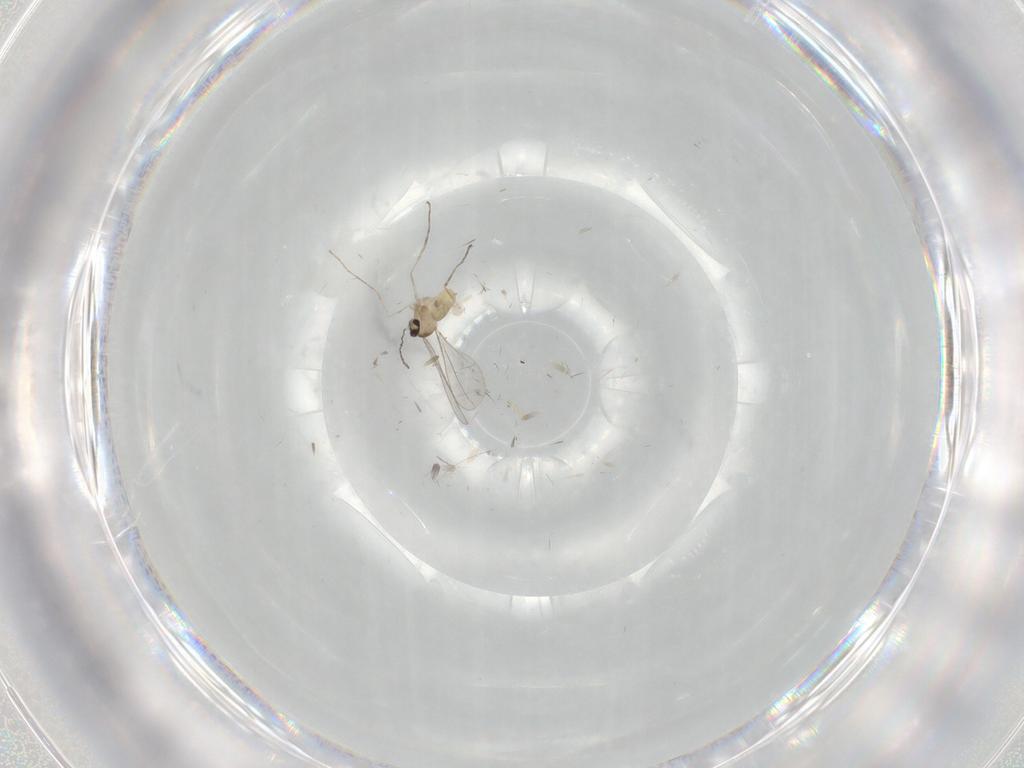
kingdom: Animalia
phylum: Arthropoda
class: Insecta
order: Diptera
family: Cecidomyiidae
